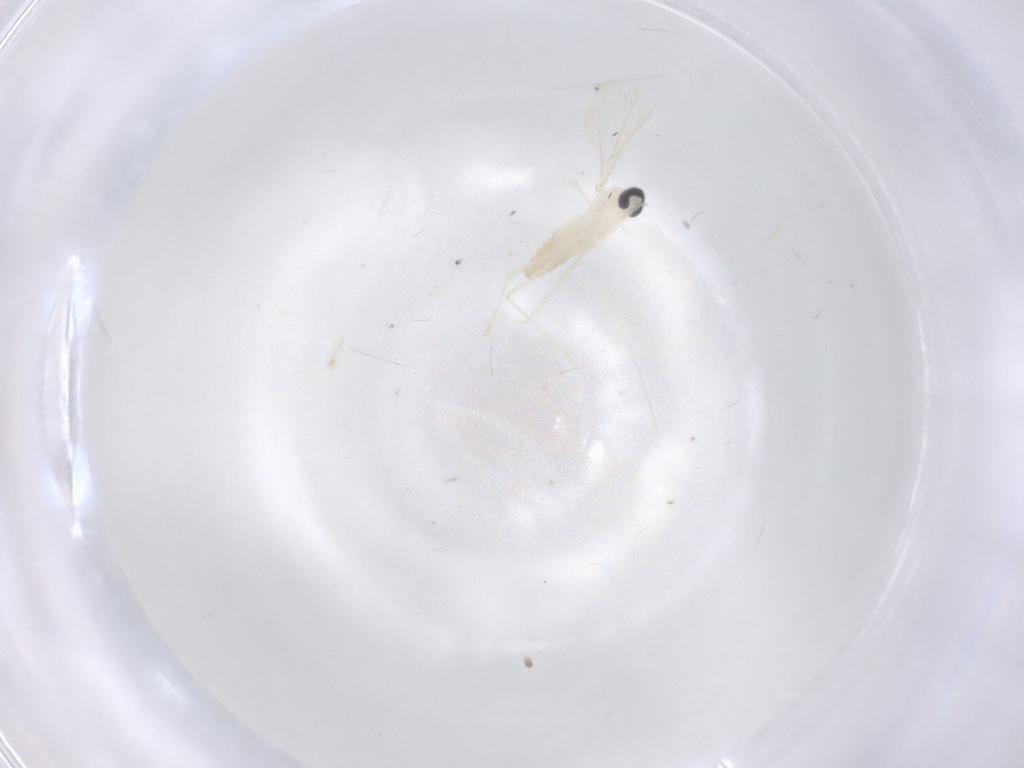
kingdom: Animalia
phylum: Arthropoda
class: Insecta
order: Diptera
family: Cecidomyiidae
